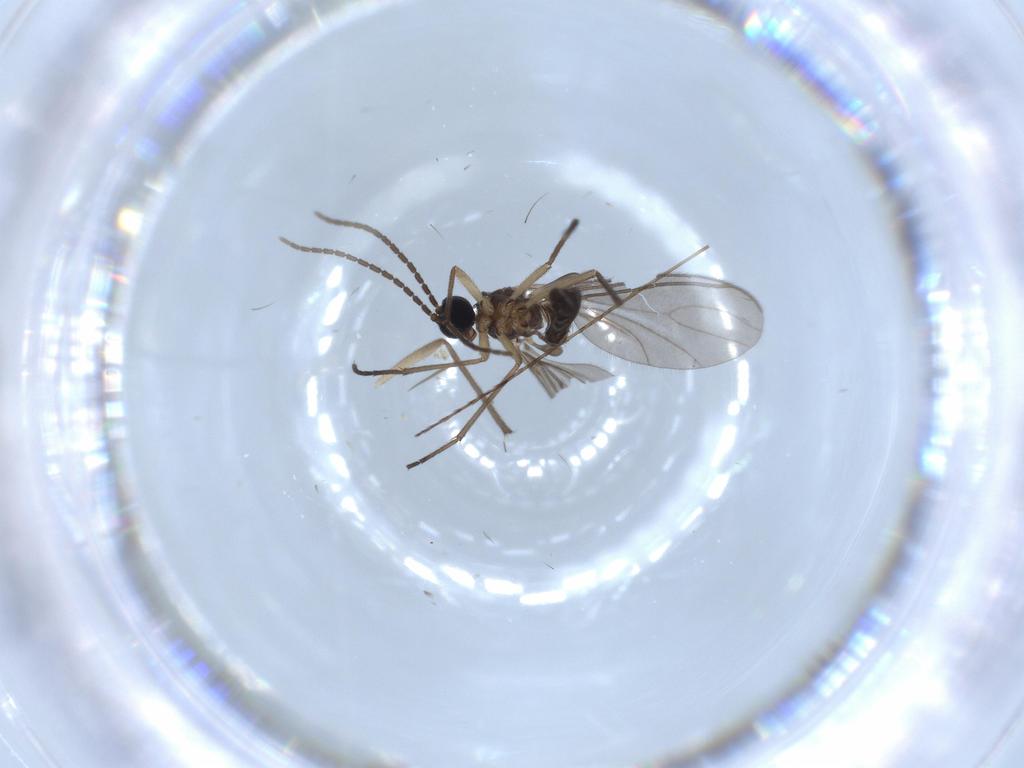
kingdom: Animalia
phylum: Arthropoda
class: Insecta
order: Diptera
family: Sciaridae
